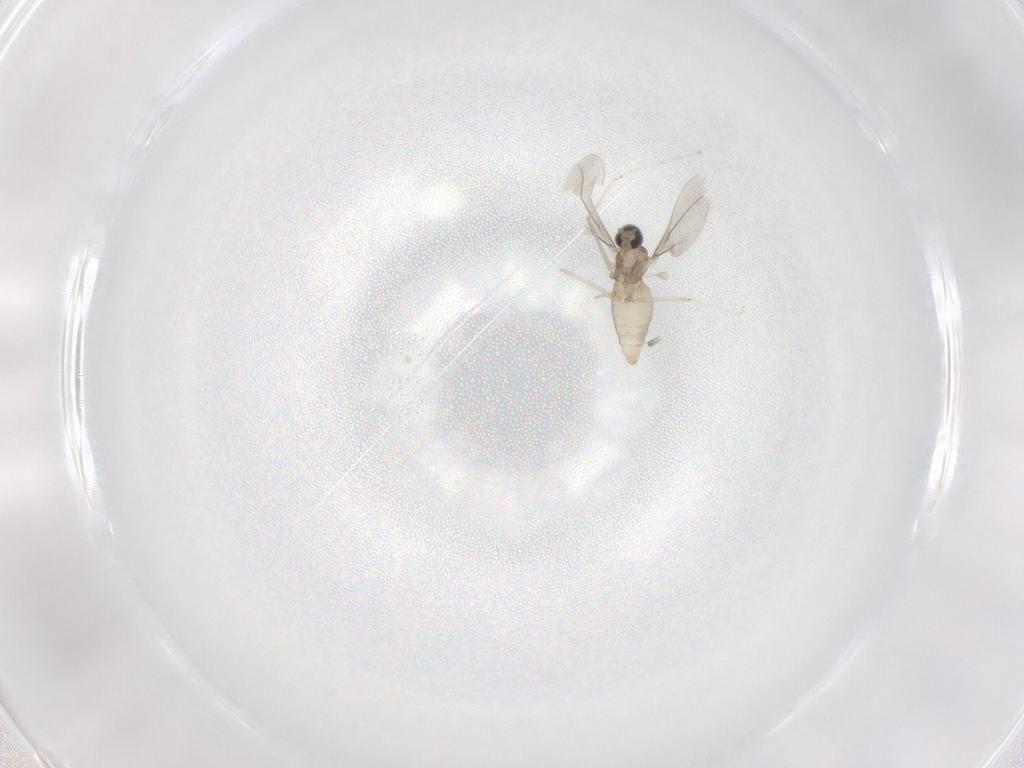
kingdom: Animalia
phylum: Arthropoda
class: Insecta
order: Diptera
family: Cecidomyiidae
